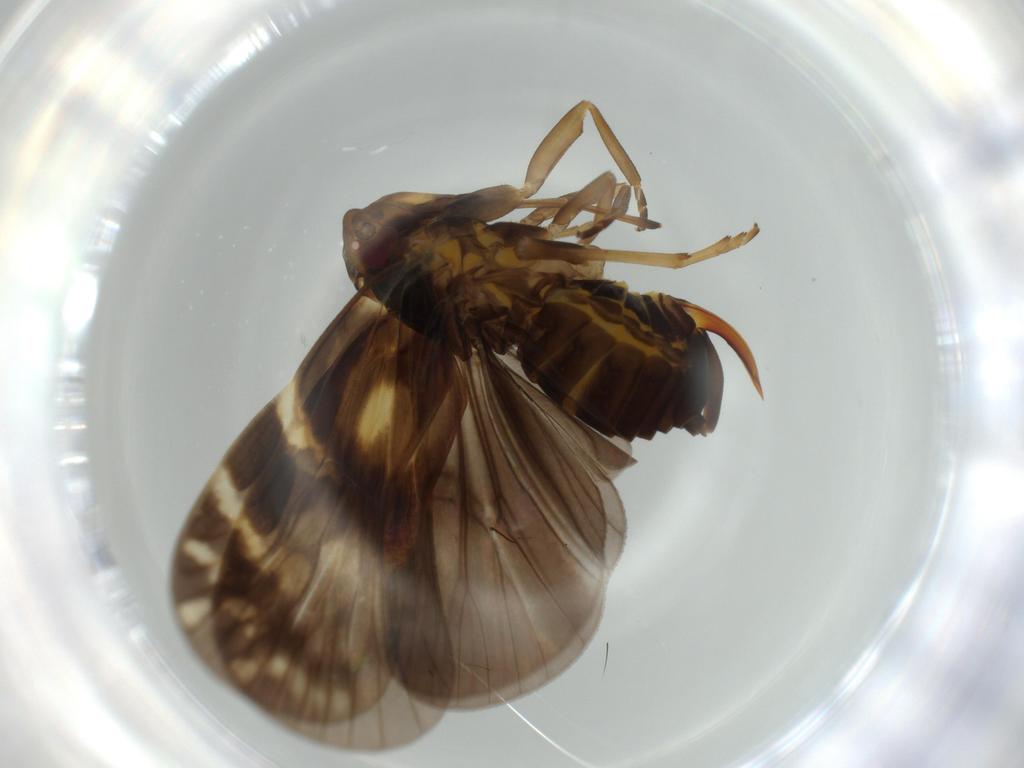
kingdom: Animalia
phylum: Arthropoda
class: Insecta
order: Hemiptera
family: Cixiidae
